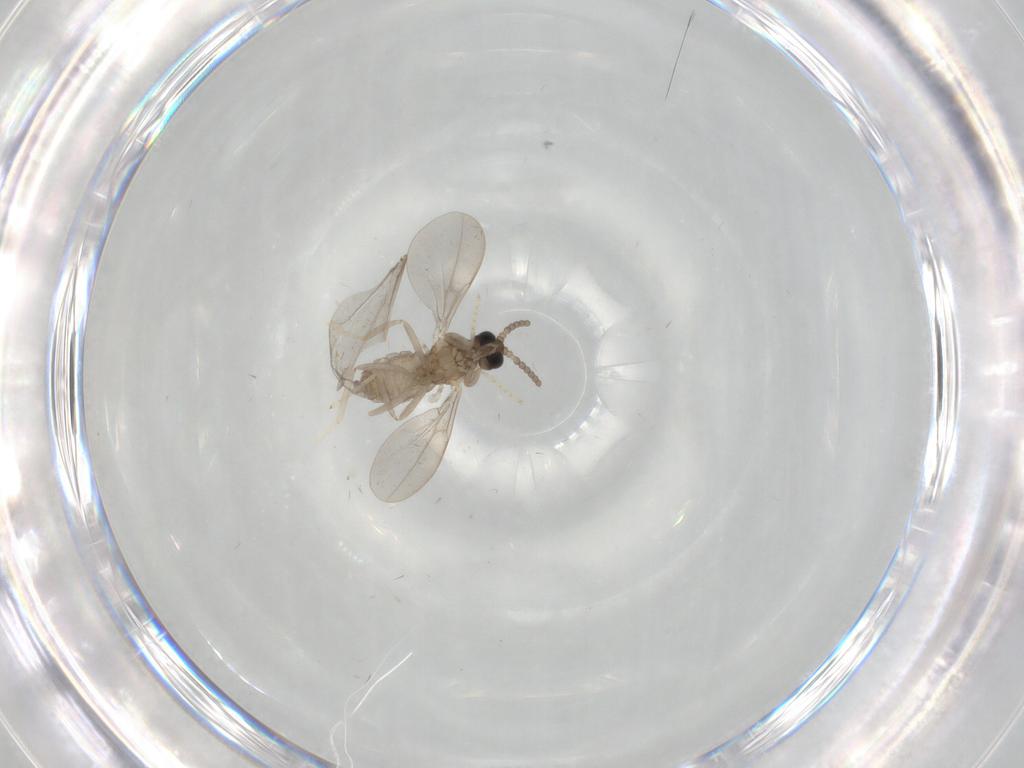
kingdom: Animalia
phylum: Arthropoda
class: Insecta
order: Diptera
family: Cecidomyiidae
